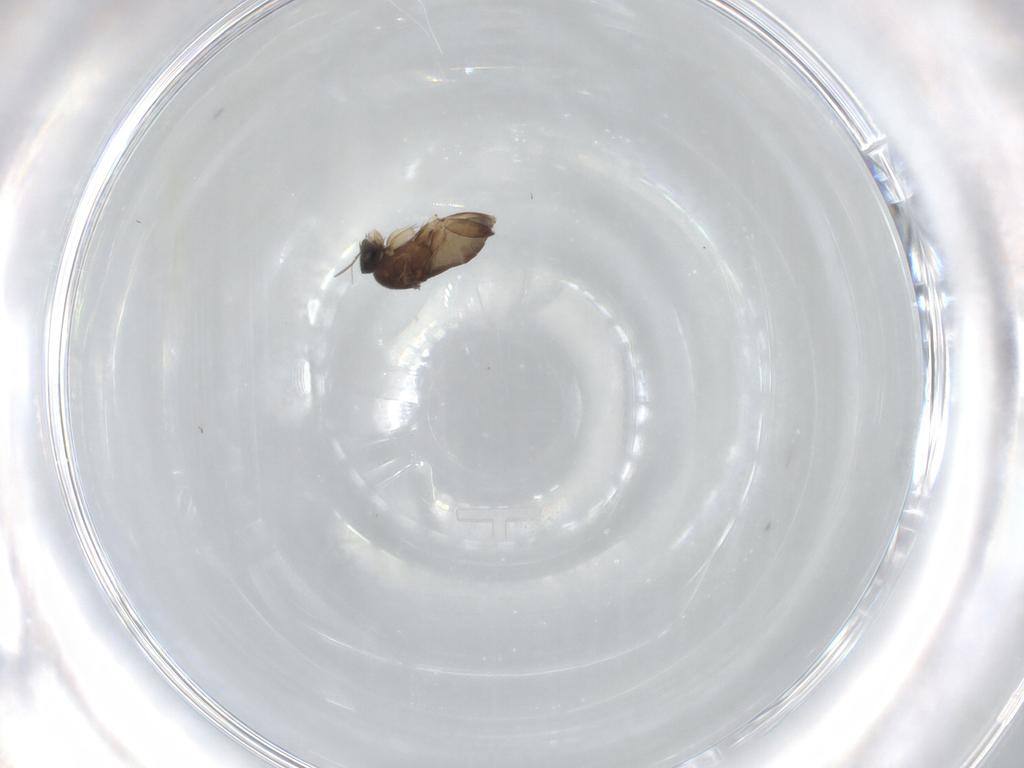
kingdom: Animalia
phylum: Arthropoda
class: Insecta
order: Diptera
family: Phoridae
